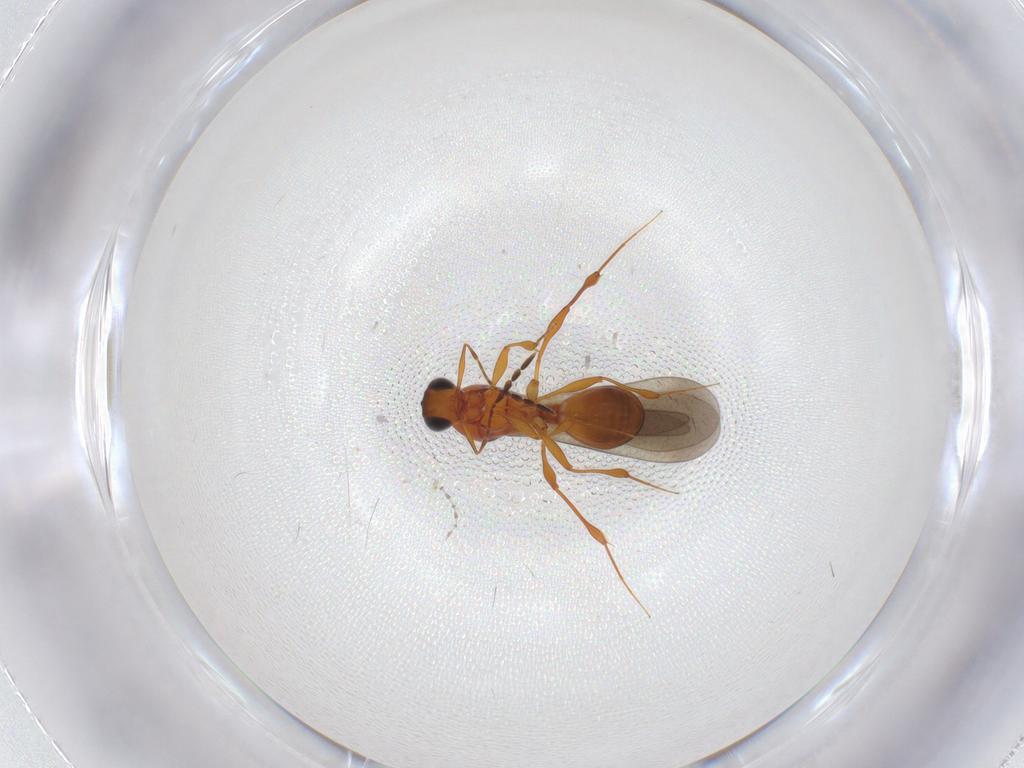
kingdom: Animalia
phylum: Arthropoda
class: Insecta
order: Hymenoptera
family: Platygastridae
